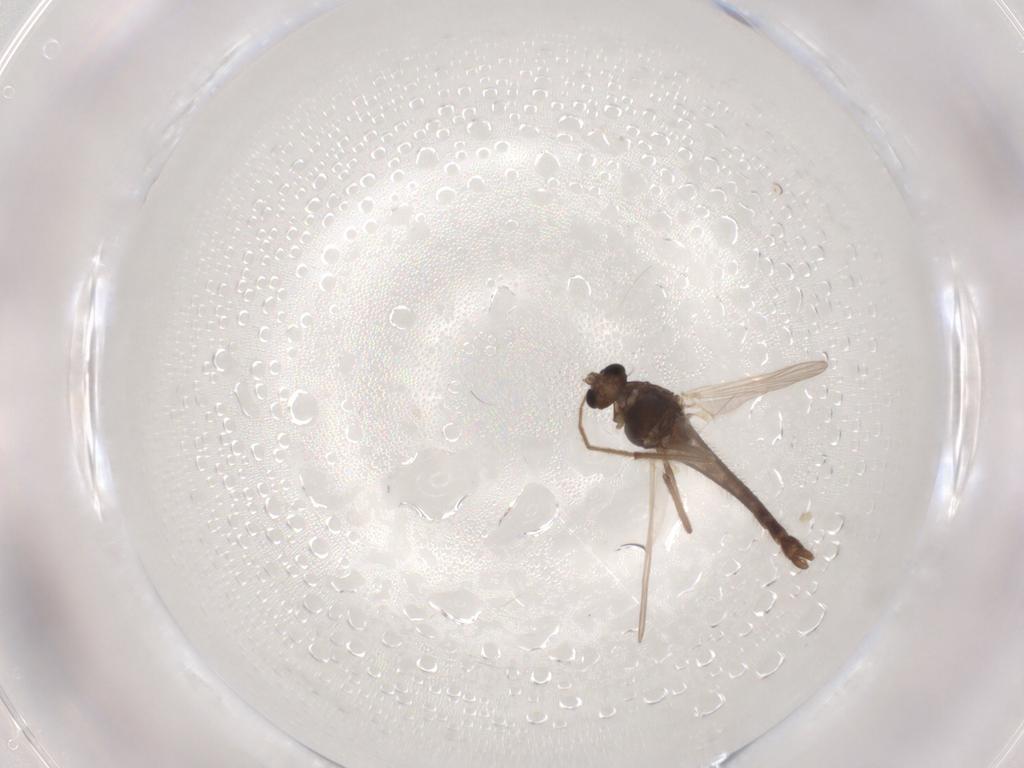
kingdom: Animalia
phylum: Arthropoda
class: Insecta
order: Diptera
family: Chironomidae
